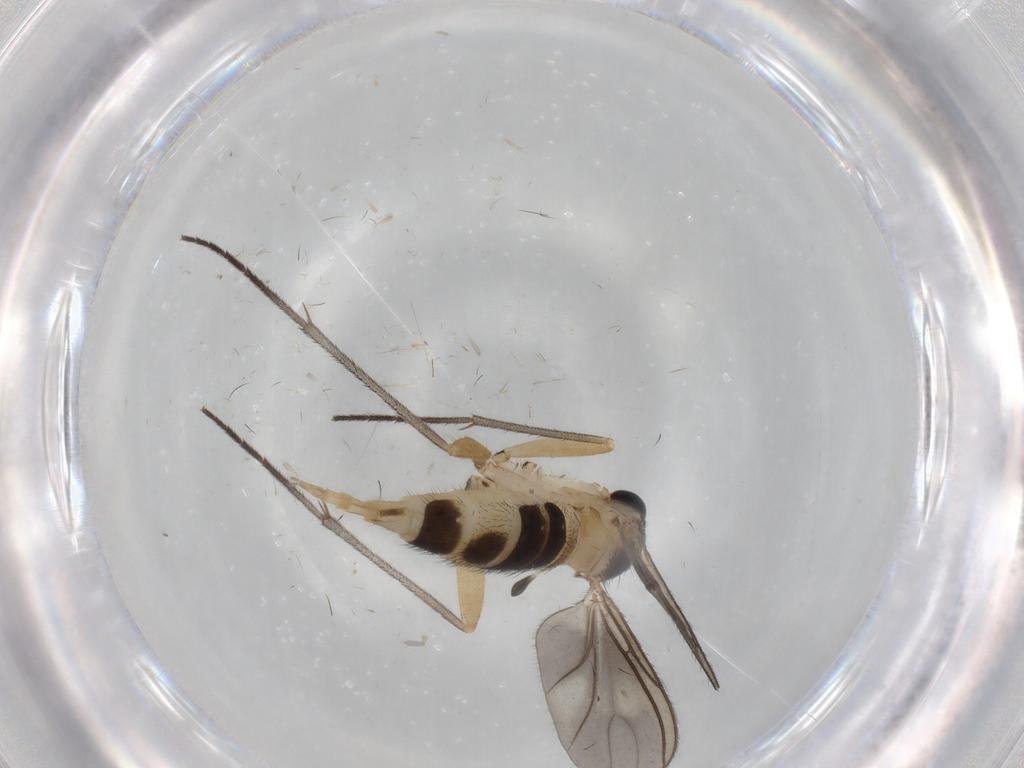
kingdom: Animalia
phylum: Arthropoda
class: Insecta
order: Diptera
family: Sciaridae
